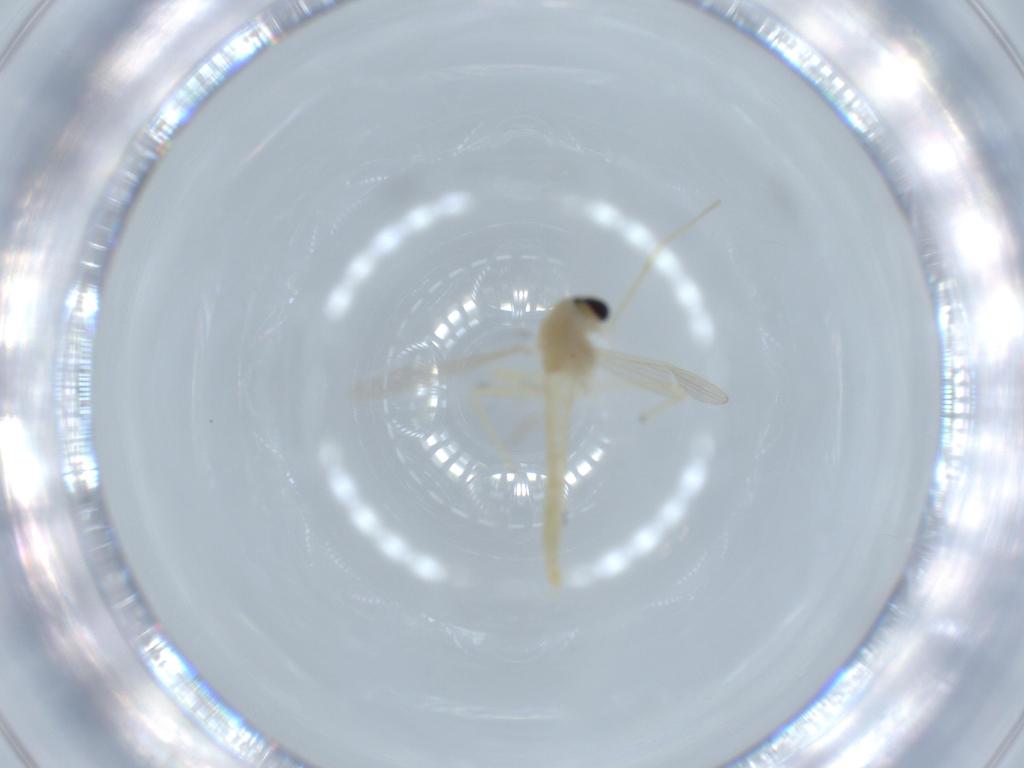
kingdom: Animalia
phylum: Arthropoda
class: Insecta
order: Diptera
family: Chironomidae
